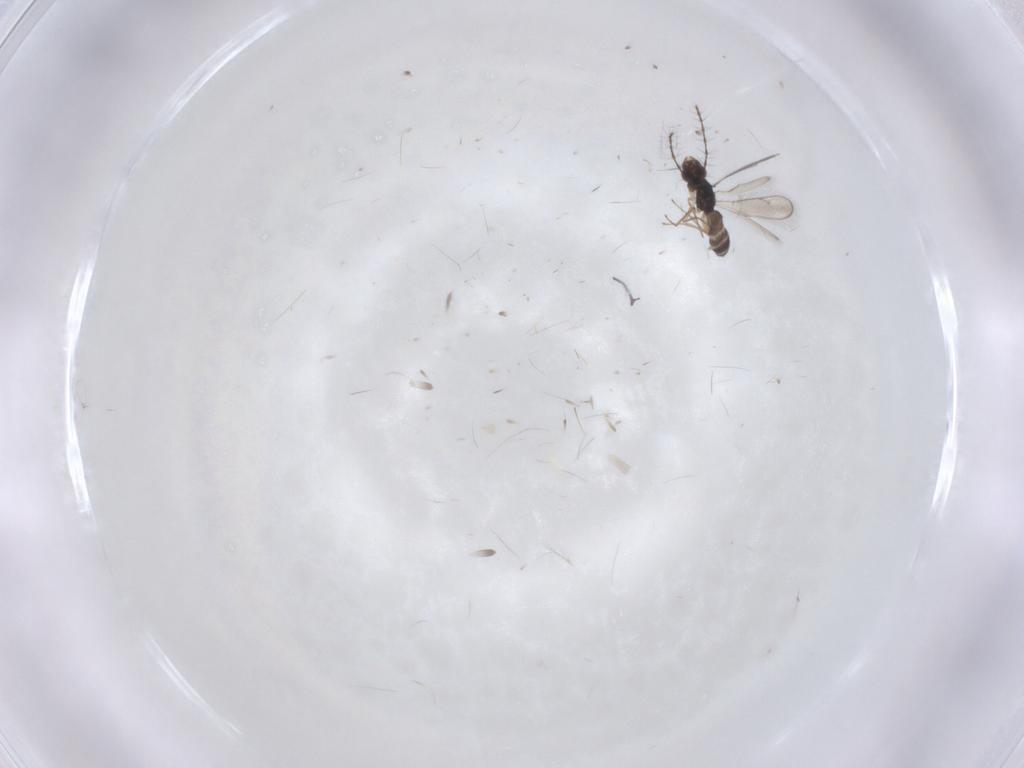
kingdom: Animalia
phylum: Arthropoda
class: Insecta
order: Hymenoptera
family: Pteromalidae
